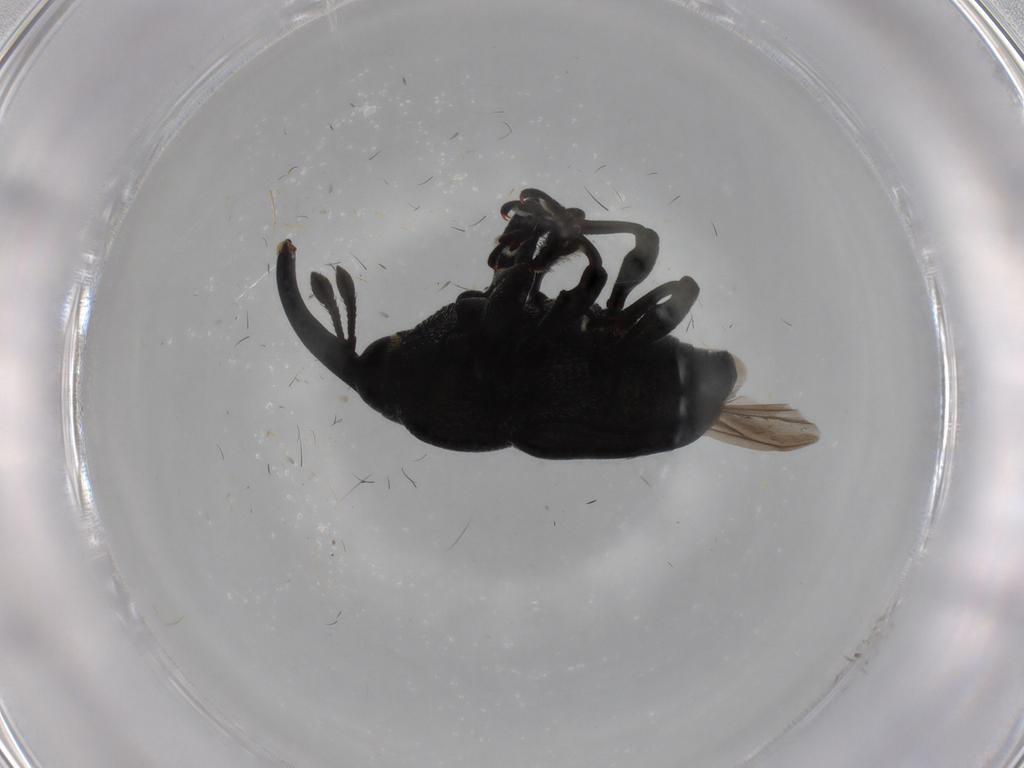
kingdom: Animalia
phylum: Arthropoda
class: Insecta
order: Coleoptera
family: Curculionidae
